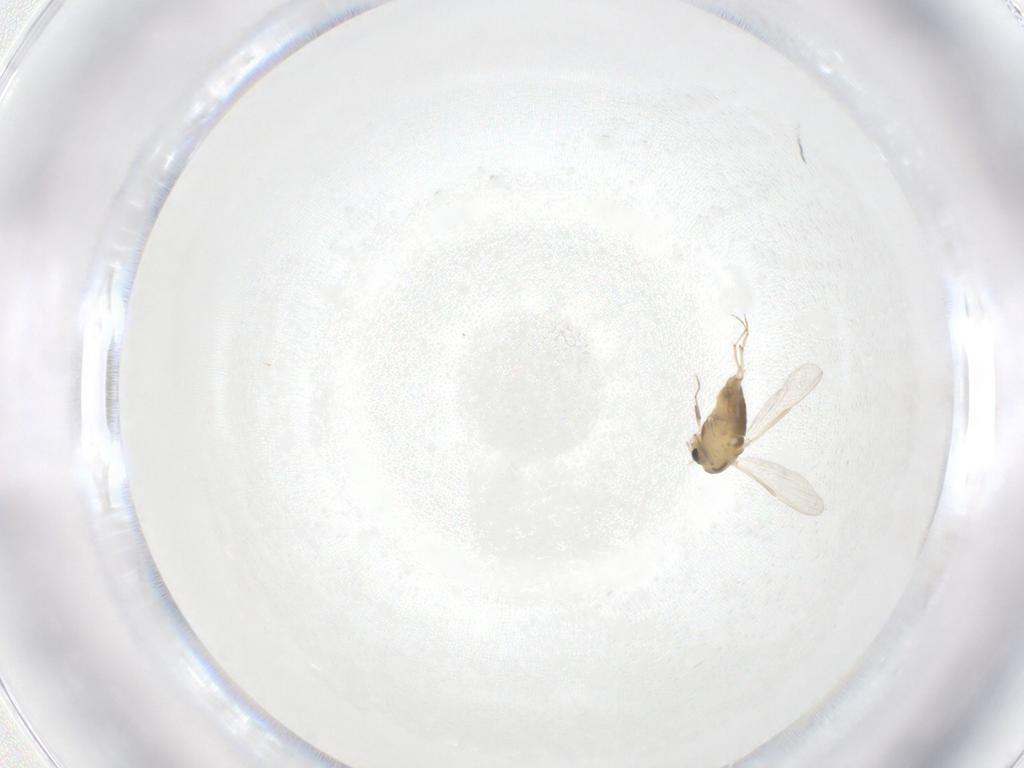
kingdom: Animalia
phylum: Arthropoda
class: Insecta
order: Diptera
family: Chironomidae
